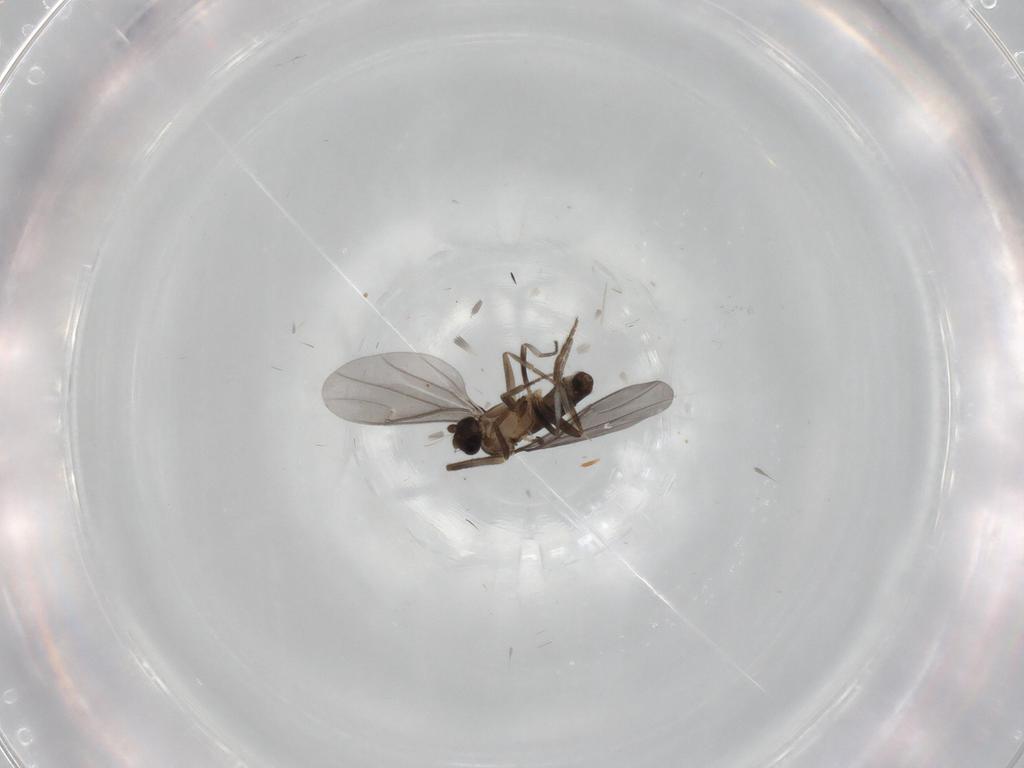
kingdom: Animalia
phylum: Arthropoda
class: Insecta
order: Diptera
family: Phoridae
